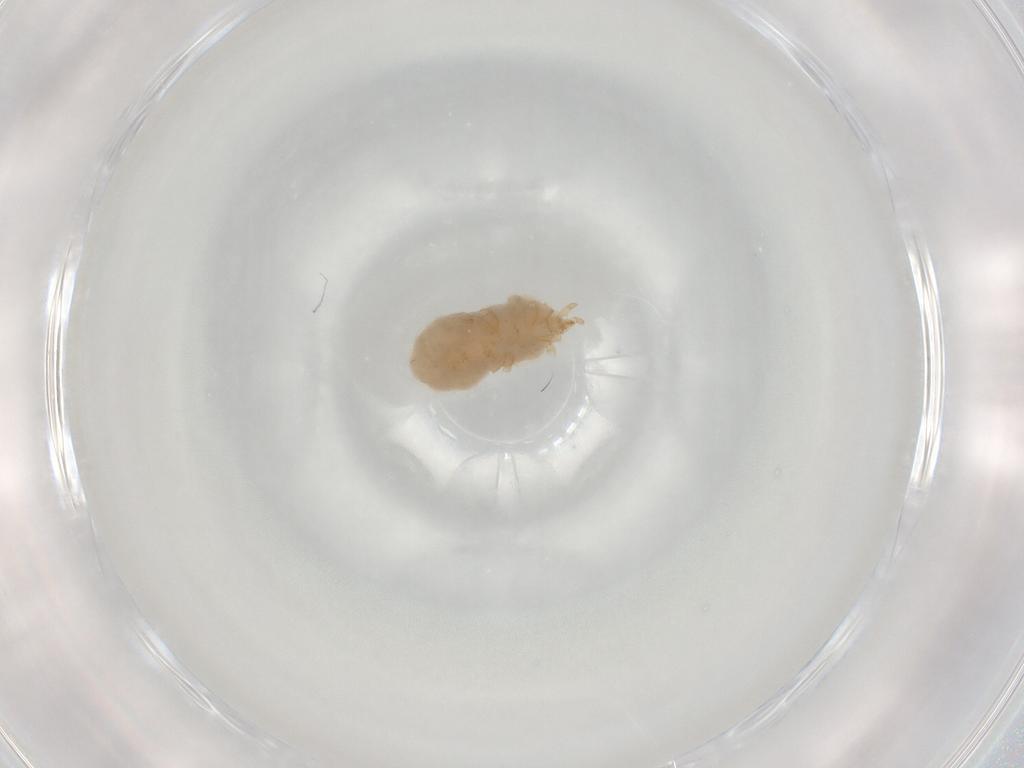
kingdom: Animalia
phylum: Arthropoda
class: Arachnida
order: Trombidiformes
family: Erythraeidae
